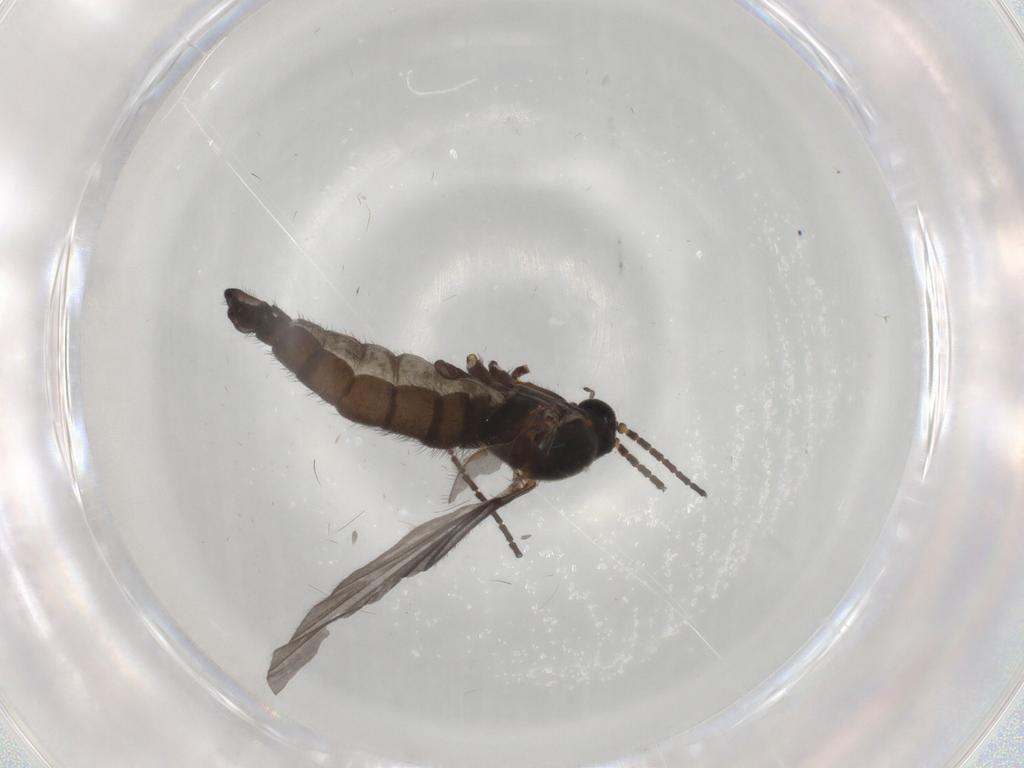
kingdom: Animalia
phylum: Arthropoda
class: Insecta
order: Diptera
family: Sciaridae
